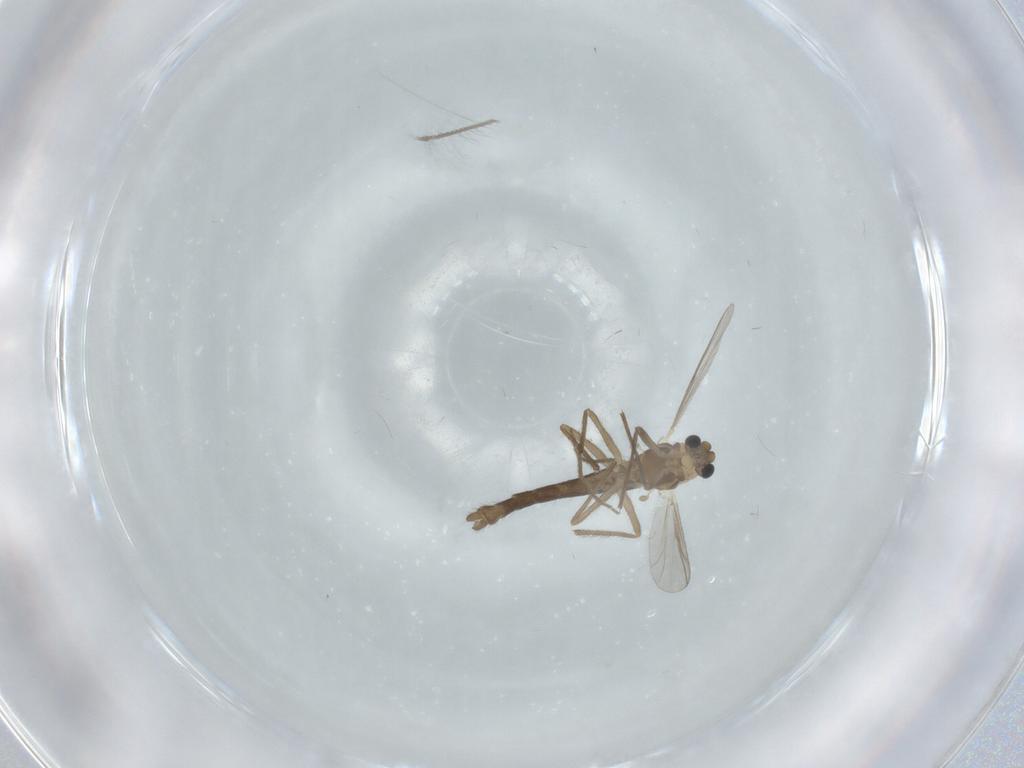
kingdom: Animalia
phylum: Arthropoda
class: Insecta
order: Diptera
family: Chironomidae
